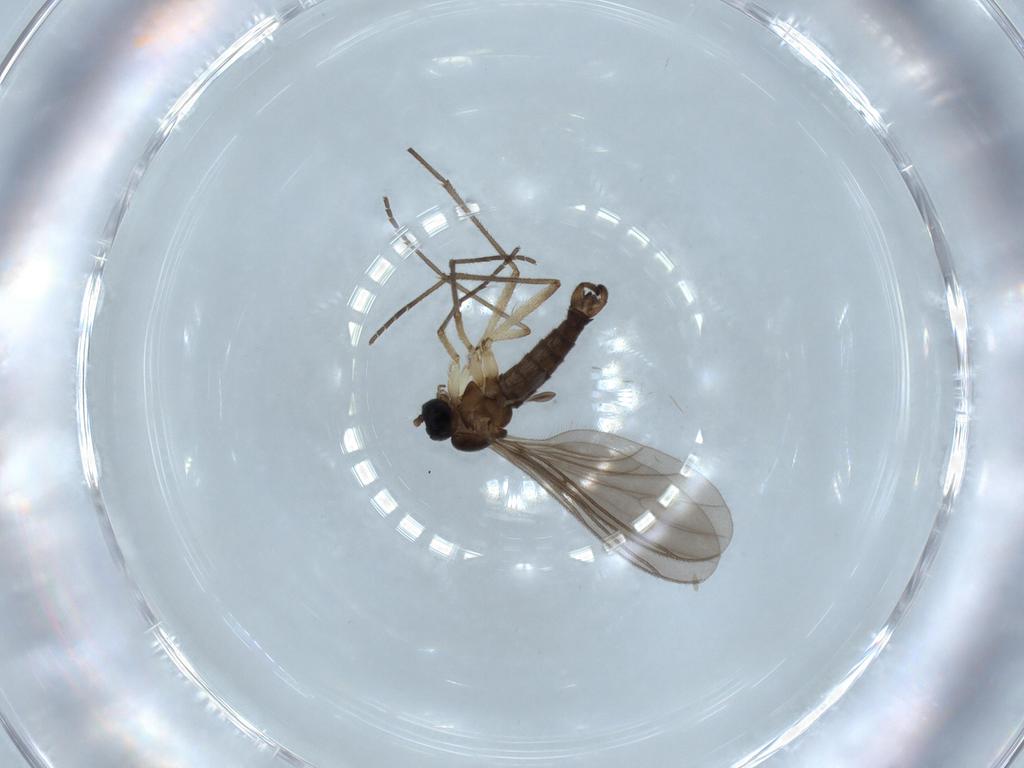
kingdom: Animalia
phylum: Arthropoda
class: Insecta
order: Diptera
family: Sciaridae
